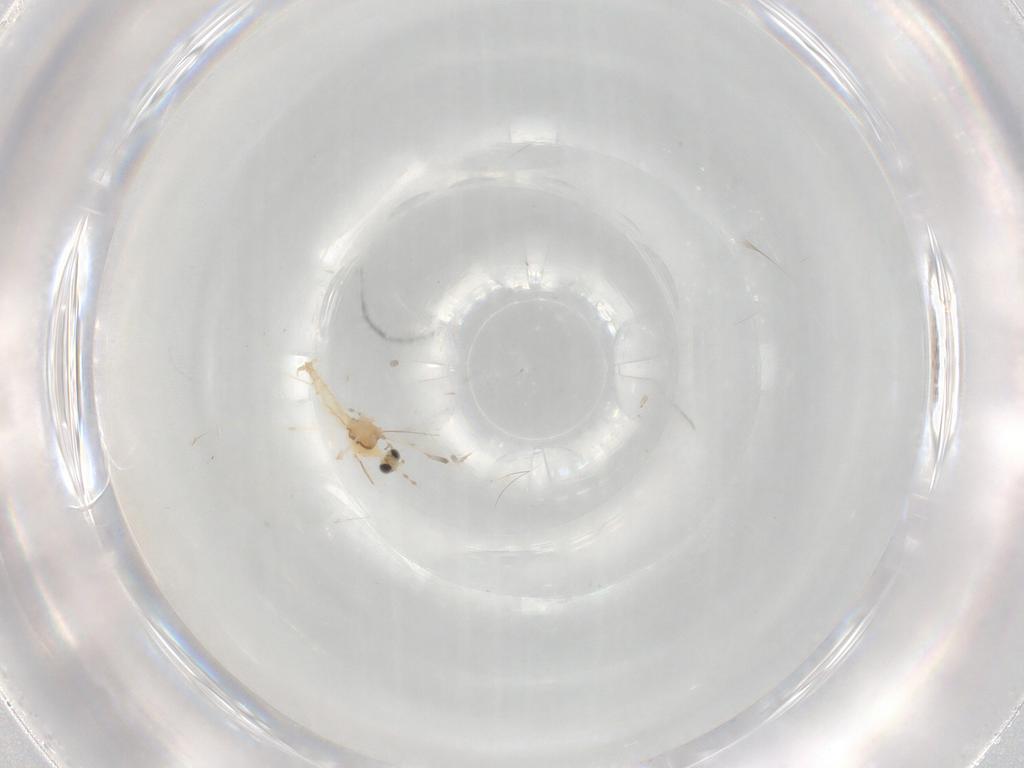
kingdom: Animalia
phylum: Arthropoda
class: Insecta
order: Diptera
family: Cecidomyiidae
